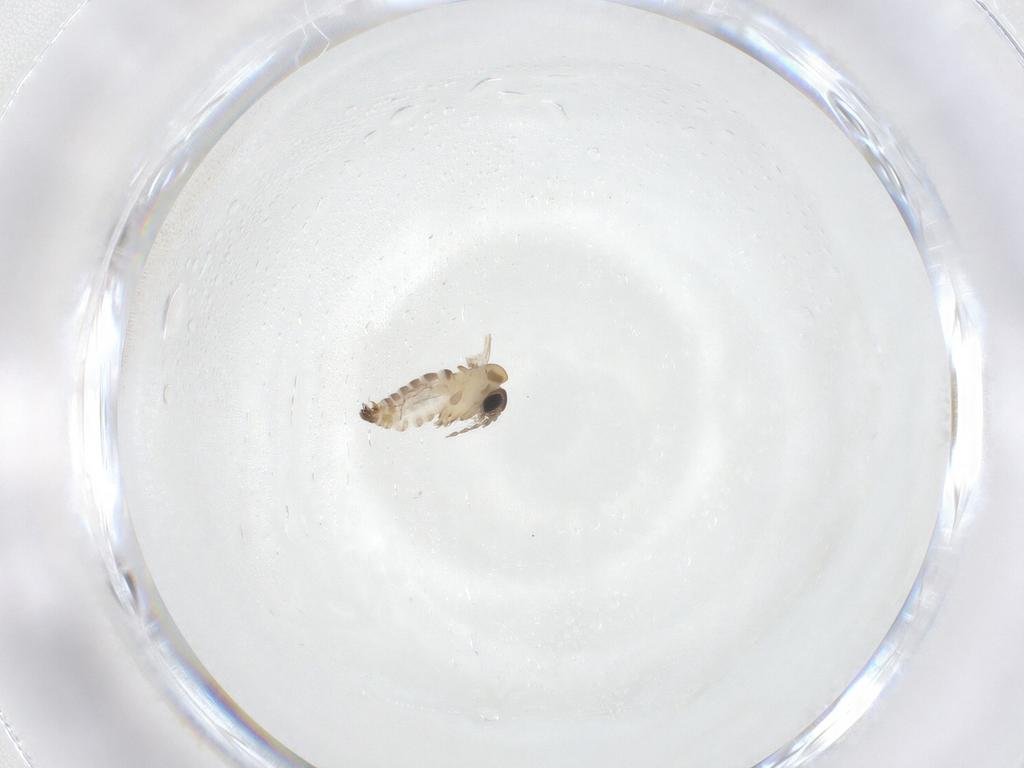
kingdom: Animalia
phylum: Arthropoda
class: Insecta
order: Diptera
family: Psychodidae
